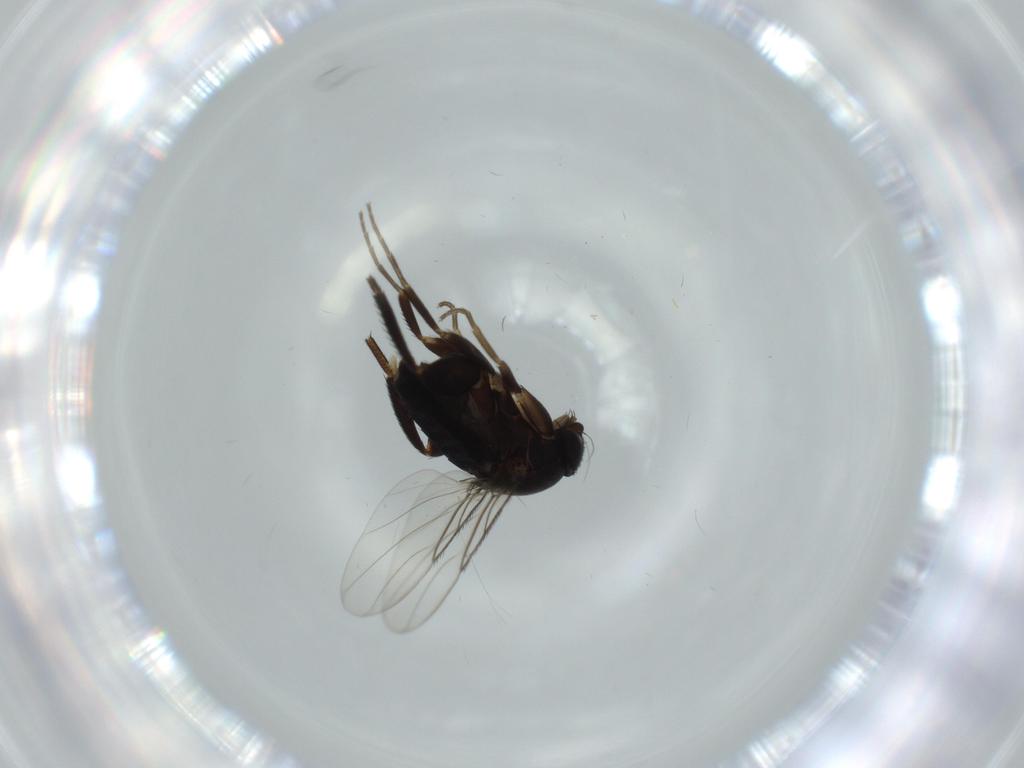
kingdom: Animalia
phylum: Arthropoda
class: Insecta
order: Diptera
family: Phoridae
